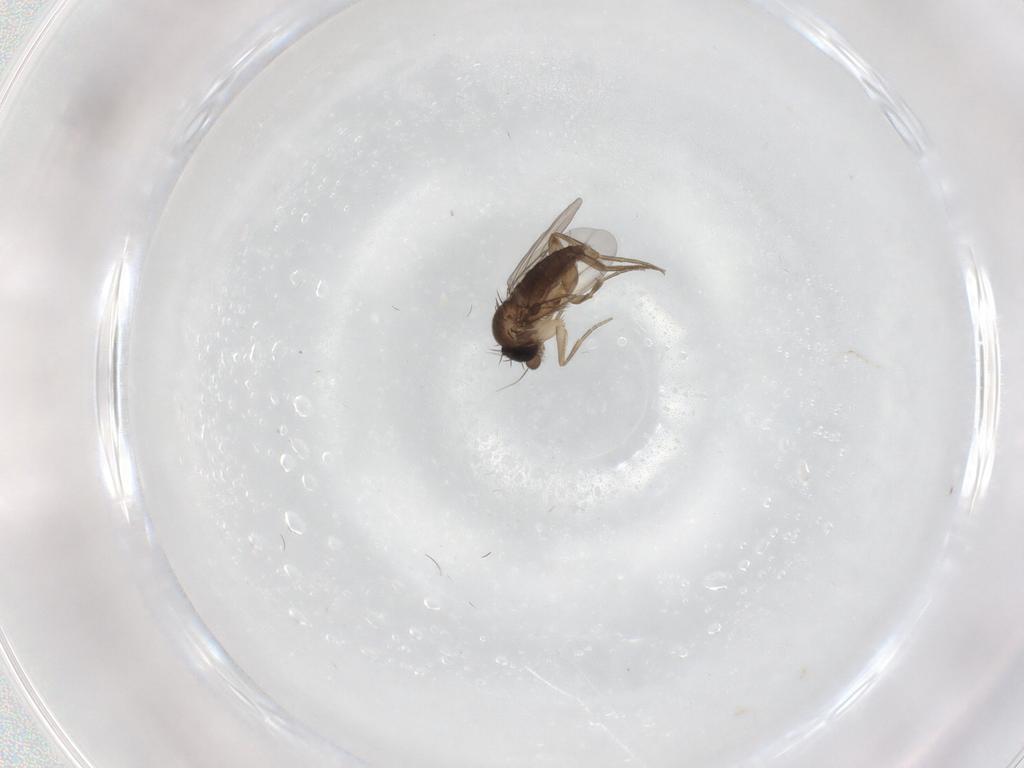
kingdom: Animalia
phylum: Arthropoda
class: Insecta
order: Diptera
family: Phoridae
